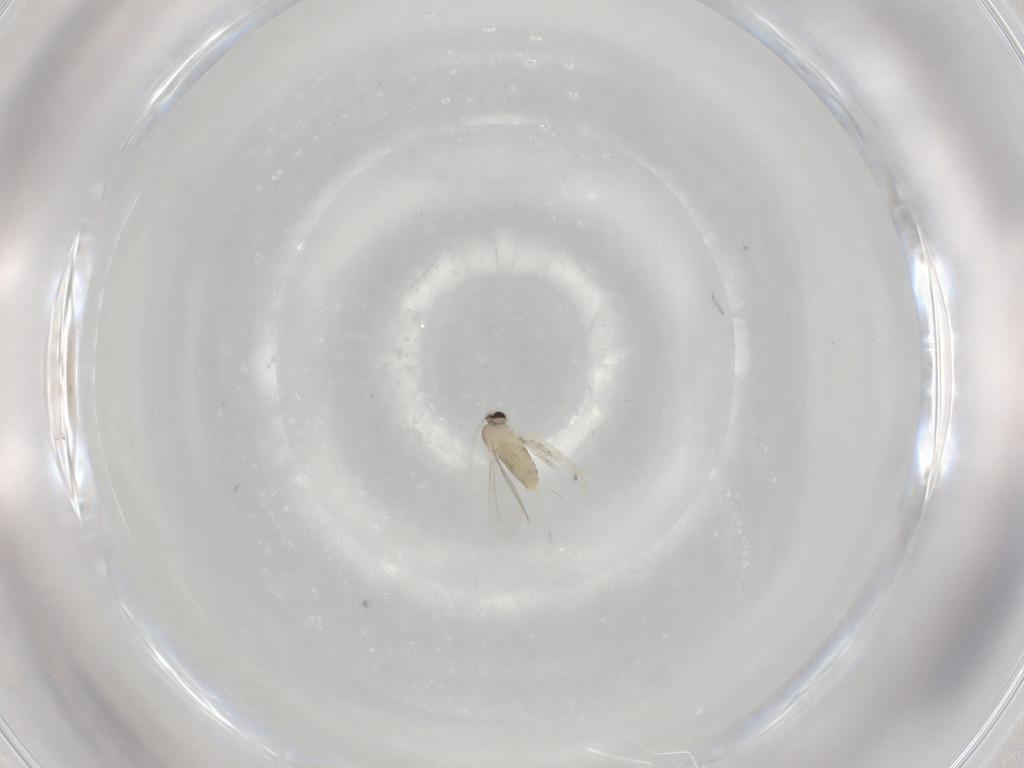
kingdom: Animalia
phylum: Arthropoda
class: Insecta
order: Diptera
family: Cecidomyiidae
